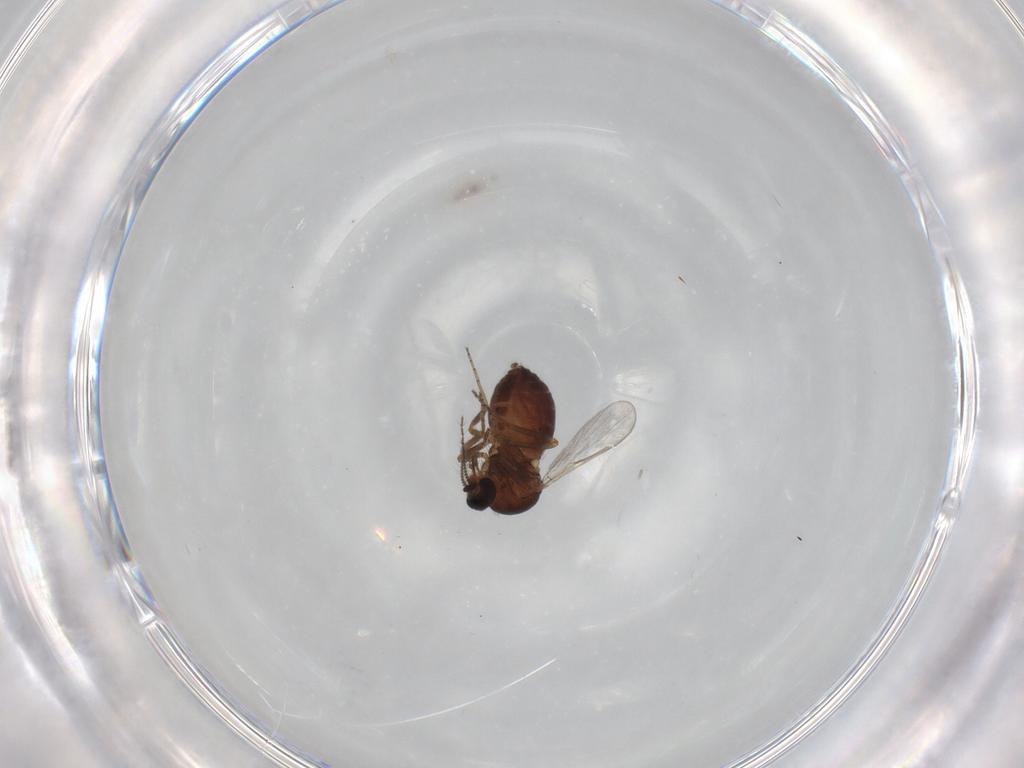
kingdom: Animalia
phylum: Arthropoda
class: Insecta
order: Diptera
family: Ceratopogonidae
